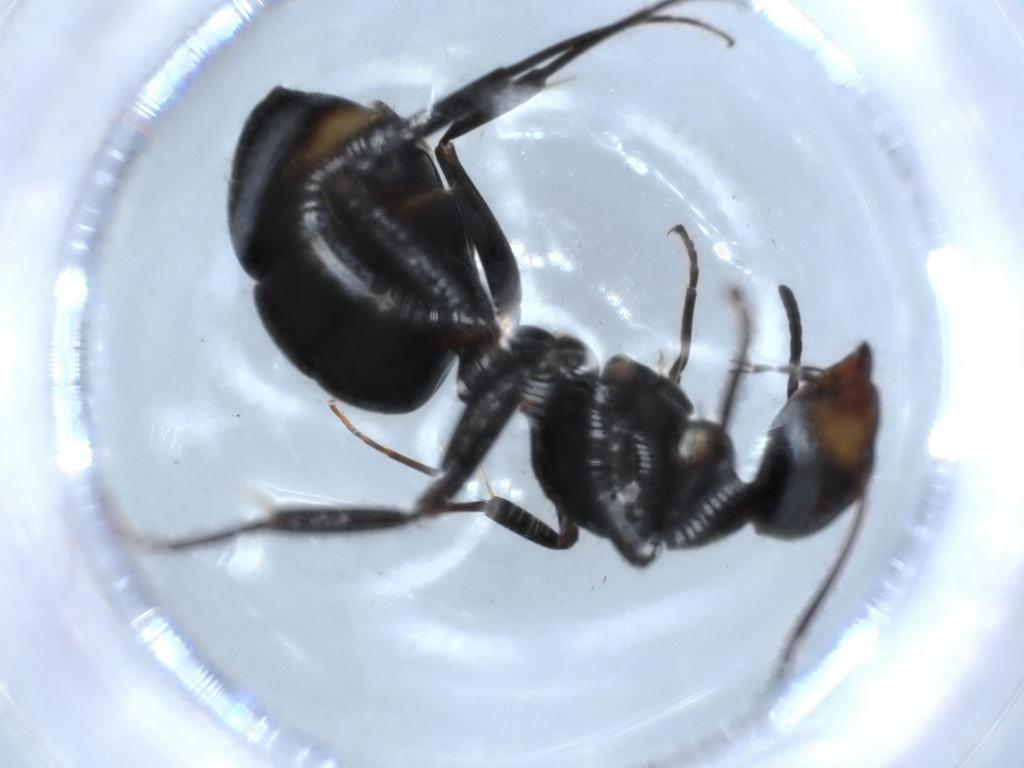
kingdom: Animalia
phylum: Arthropoda
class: Insecta
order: Hymenoptera
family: Formicidae
